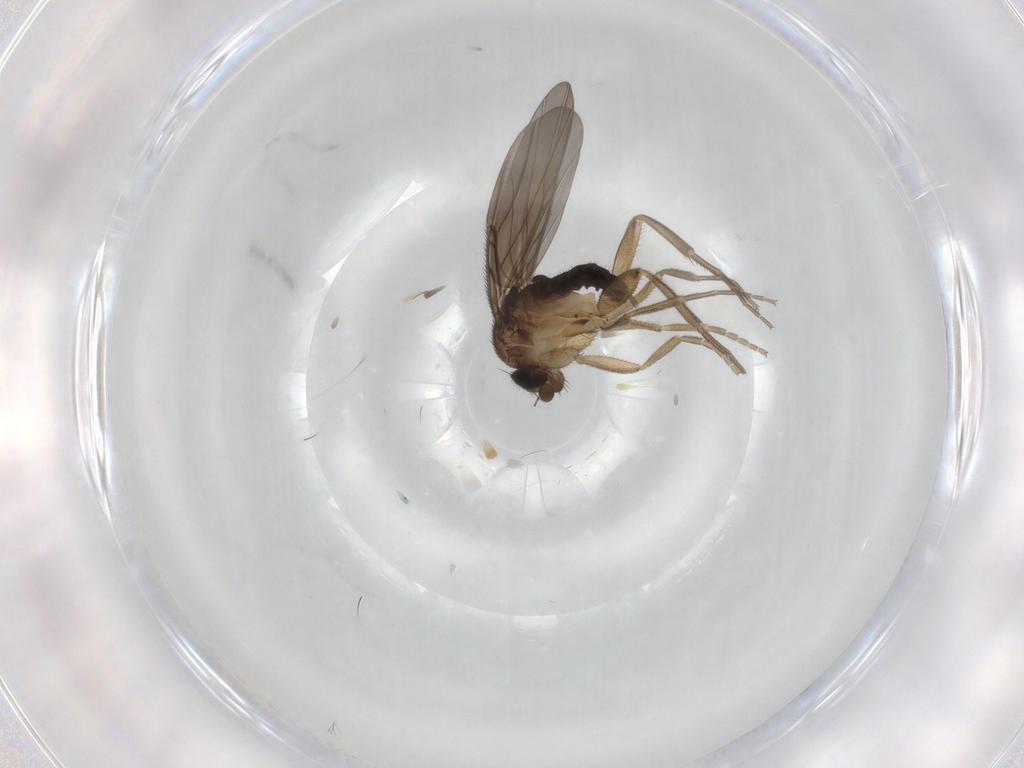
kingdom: Animalia
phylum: Arthropoda
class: Insecta
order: Diptera
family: Phoridae
